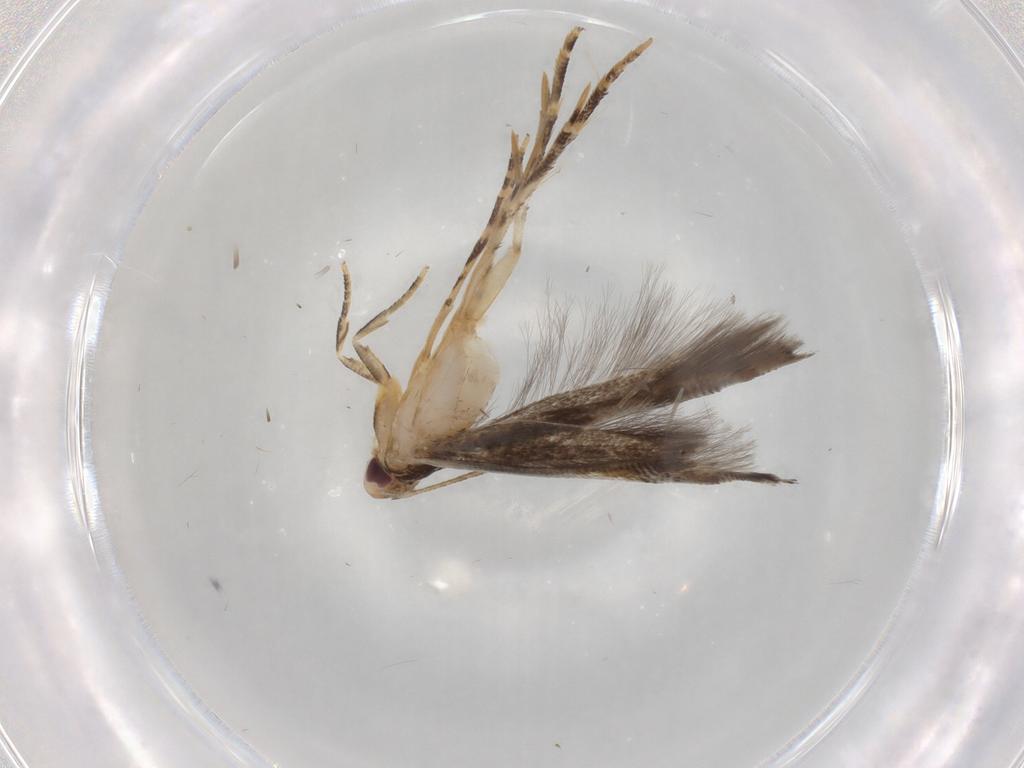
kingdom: Animalia
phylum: Arthropoda
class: Insecta
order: Lepidoptera
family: Momphidae
